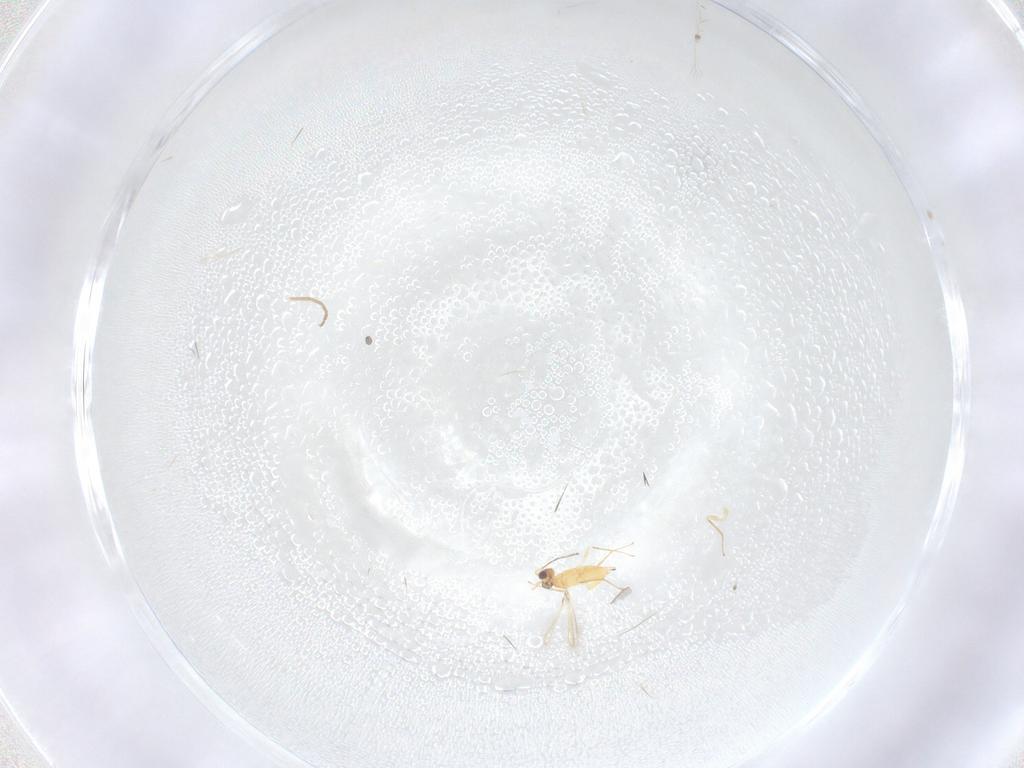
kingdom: Animalia
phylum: Arthropoda
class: Insecta
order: Hymenoptera
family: Mymaridae
